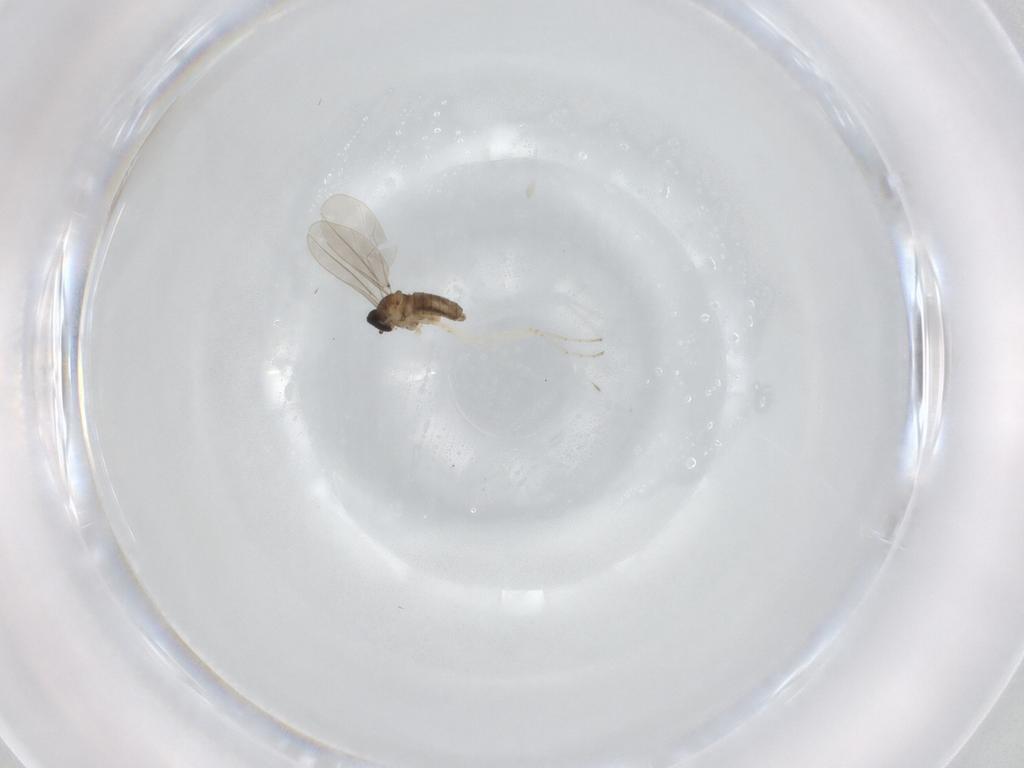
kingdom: Animalia
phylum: Arthropoda
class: Insecta
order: Diptera
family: Cecidomyiidae
